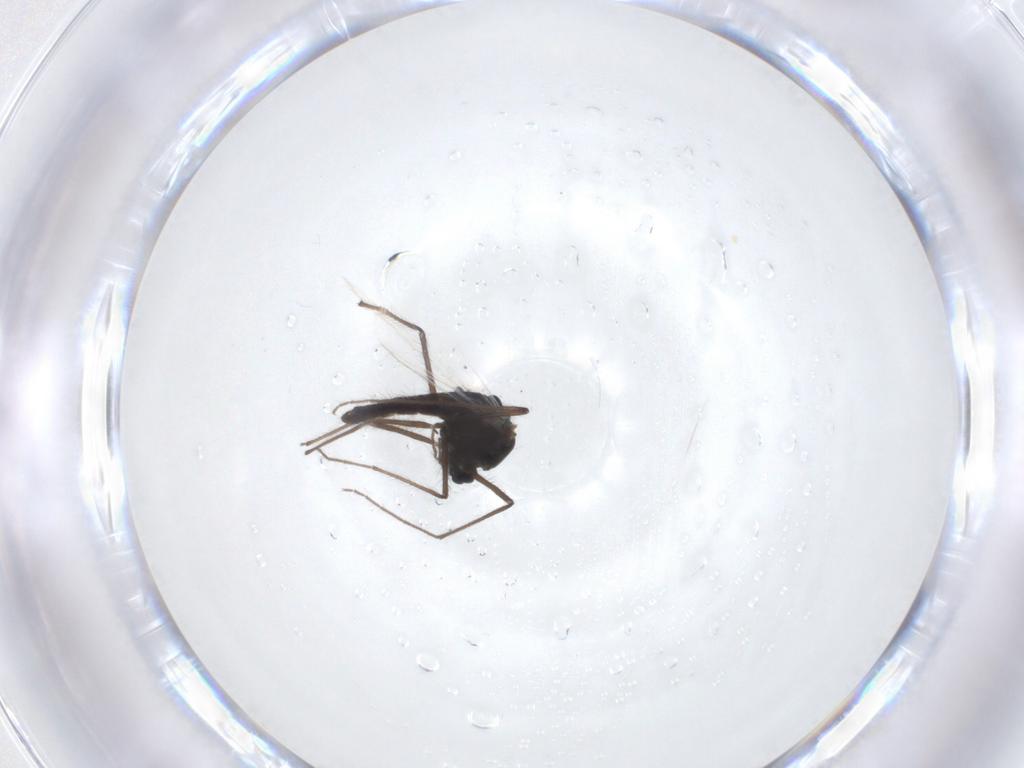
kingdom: Animalia
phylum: Arthropoda
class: Insecta
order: Diptera
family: Chironomidae
